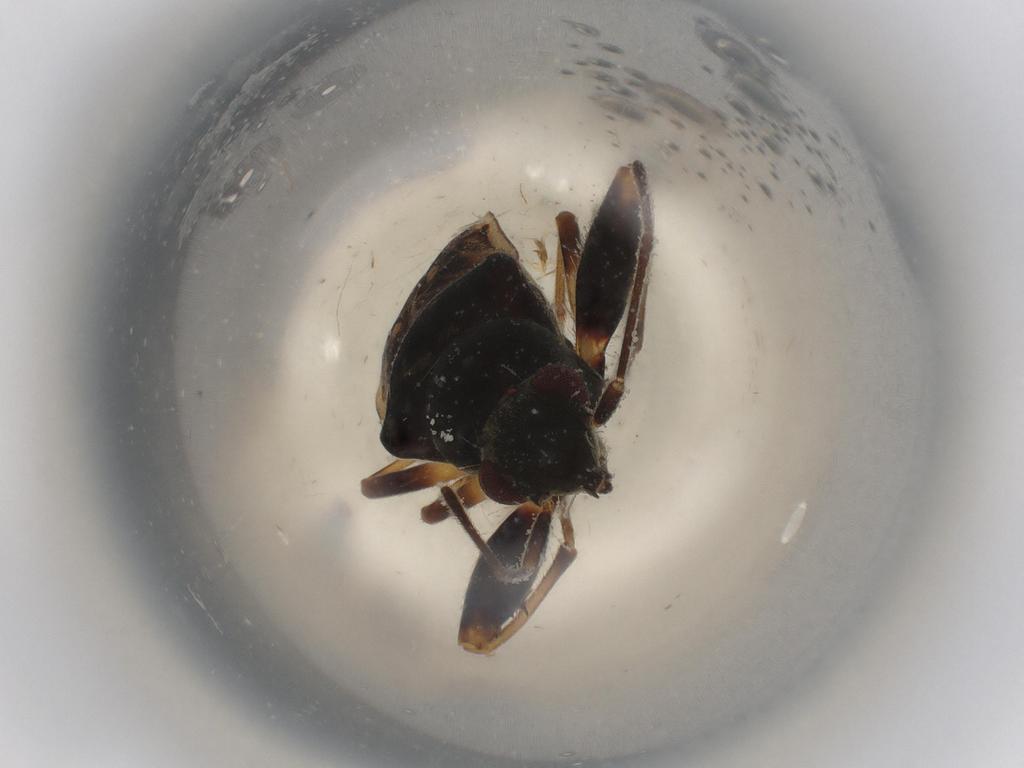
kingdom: Animalia
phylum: Arthropoda
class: Insecta
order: Hemiptera
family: Rhyparochromidae
